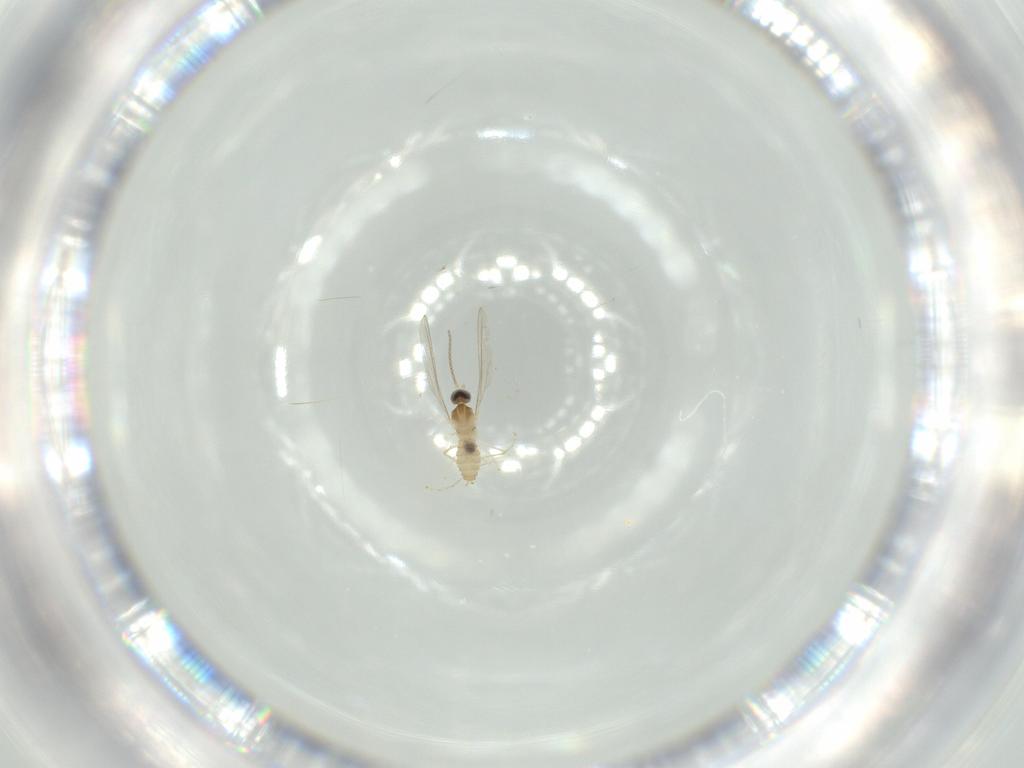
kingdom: Animalia
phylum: Arthropoda
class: Insecta
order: Diptera
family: Cecidomyiidae
